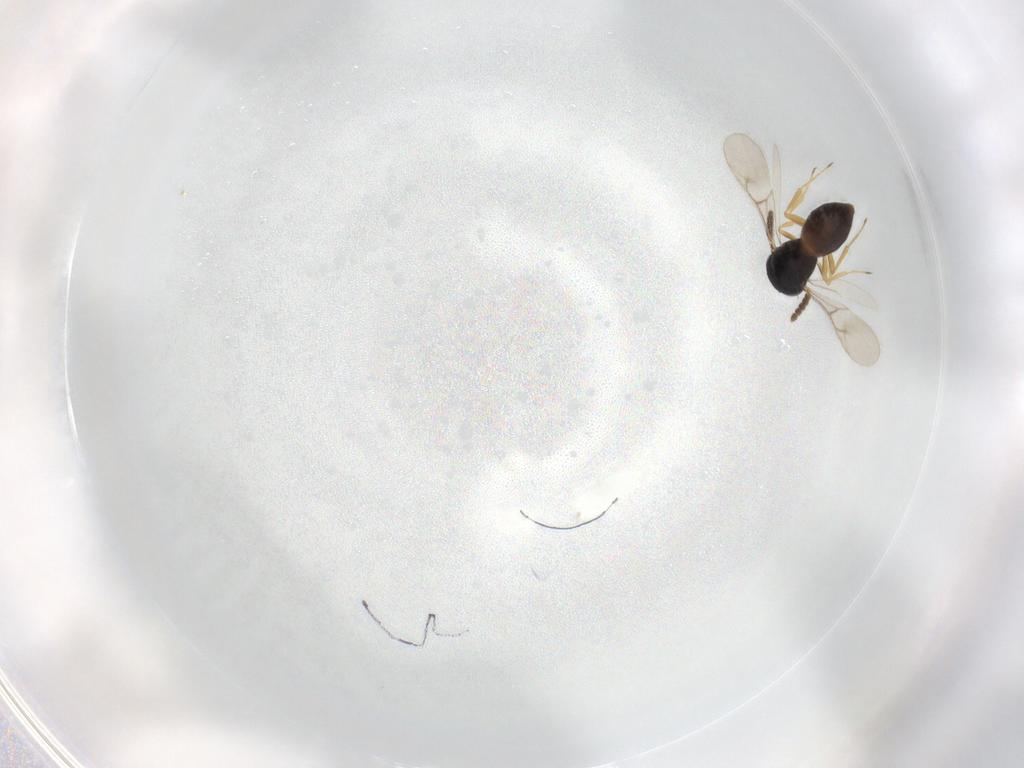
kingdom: Animalia
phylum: Arthropoda
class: Insecta
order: Hymenoptera
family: Scelionidae
